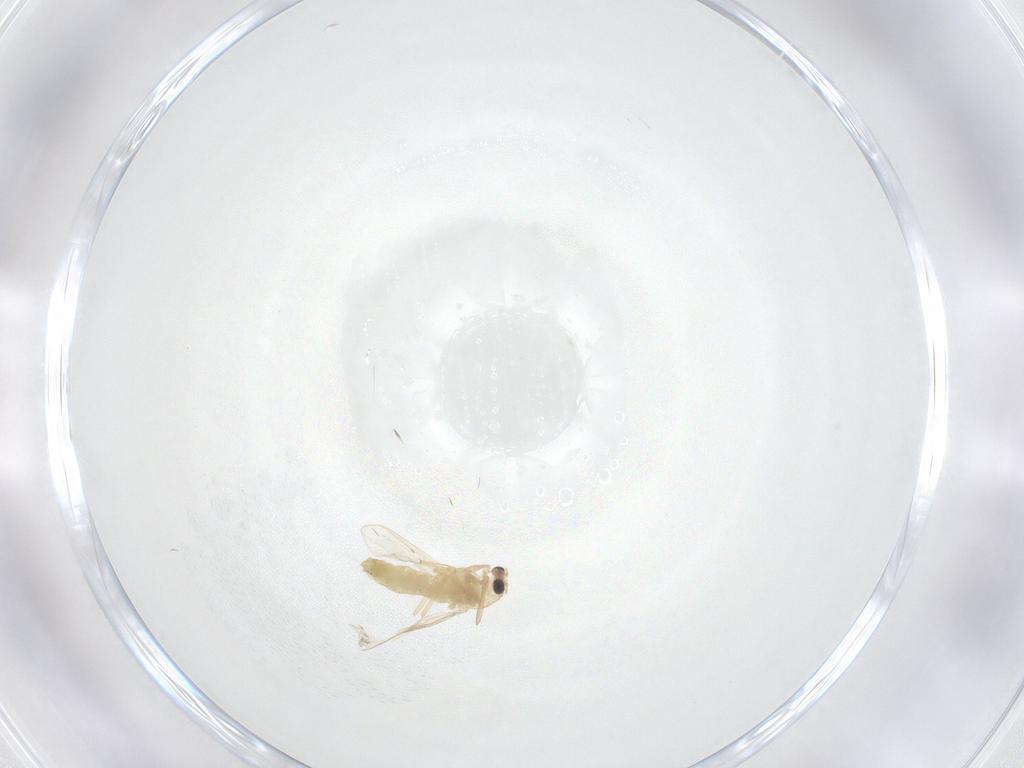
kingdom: Animalia
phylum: Arthropoda
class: Insecta
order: Diptera
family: Chironomidae
